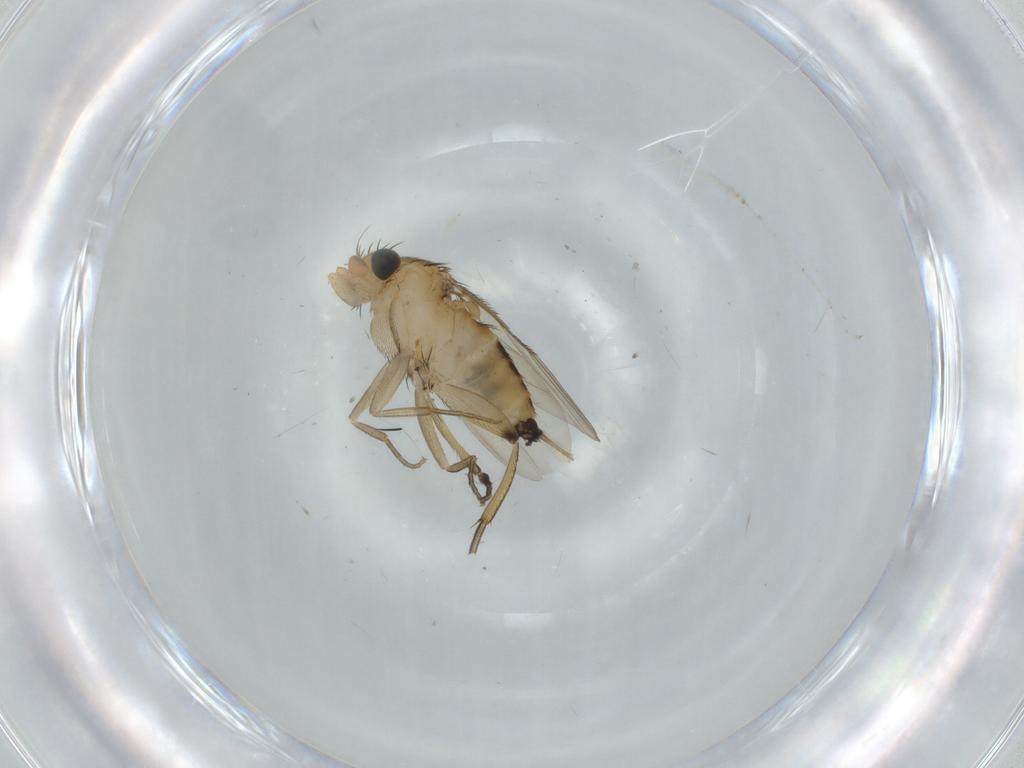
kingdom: Animalia
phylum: Arthropoda
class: Insecta
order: Diptera
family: Phoridae
